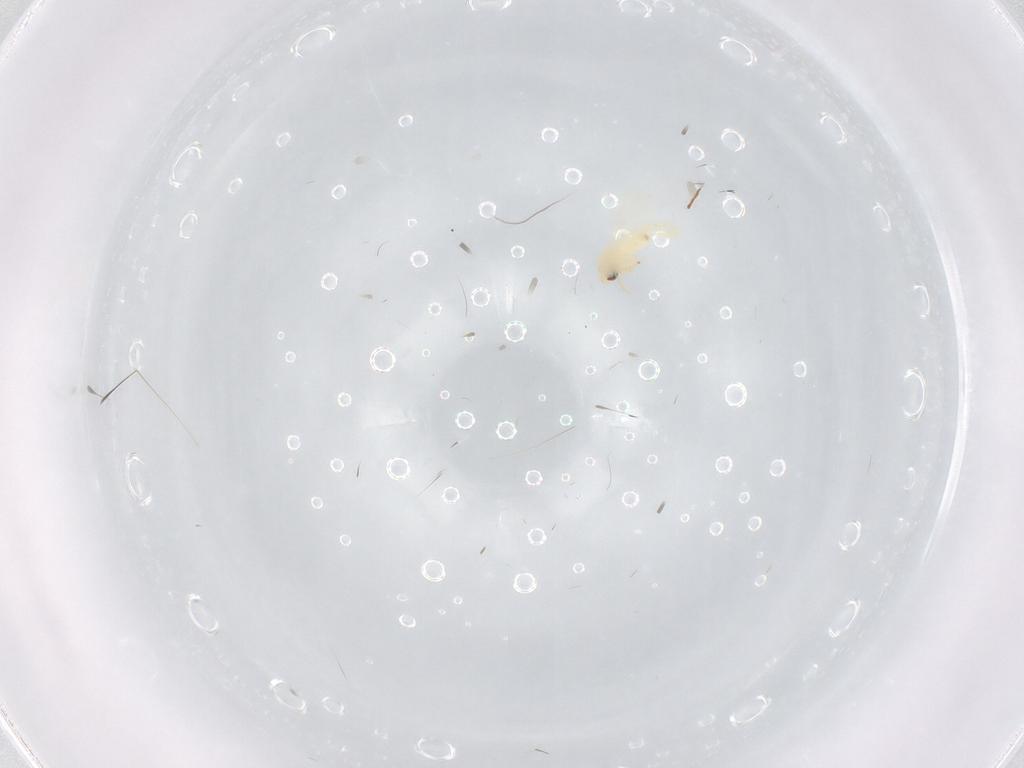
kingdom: Animalia
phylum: Arthropoda
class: Insecta
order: Hemiptera
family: Aleyrodidae
